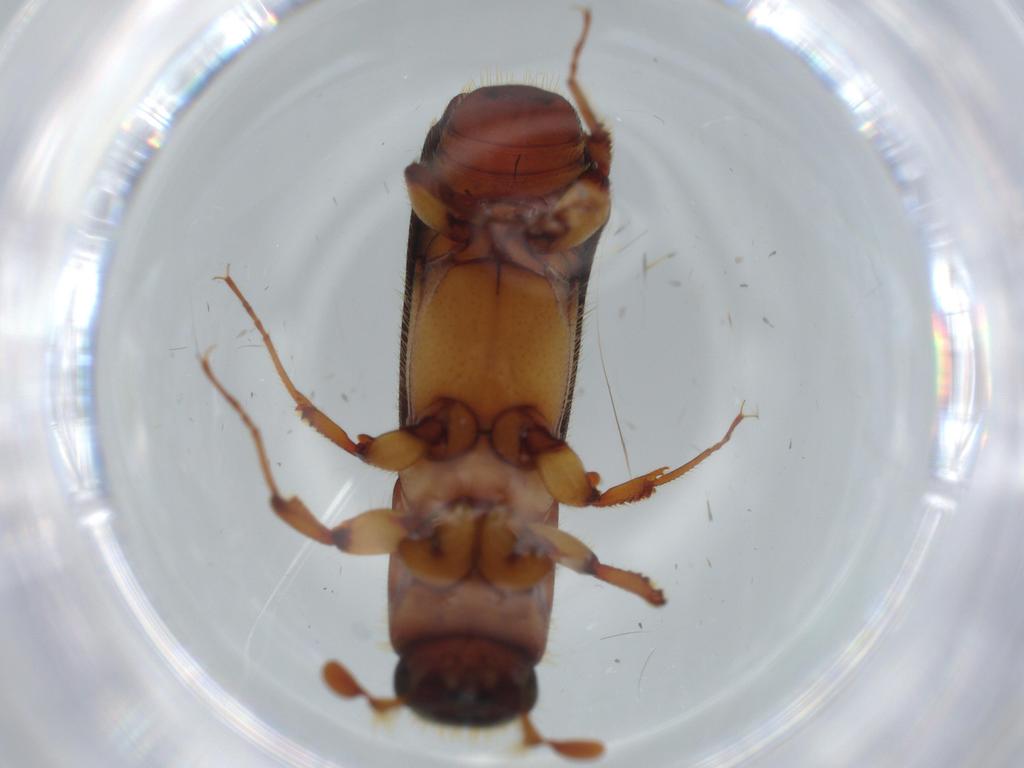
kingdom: Animalia
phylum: Arthropoda
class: Insecta
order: Coleoptera
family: Curculionidae
